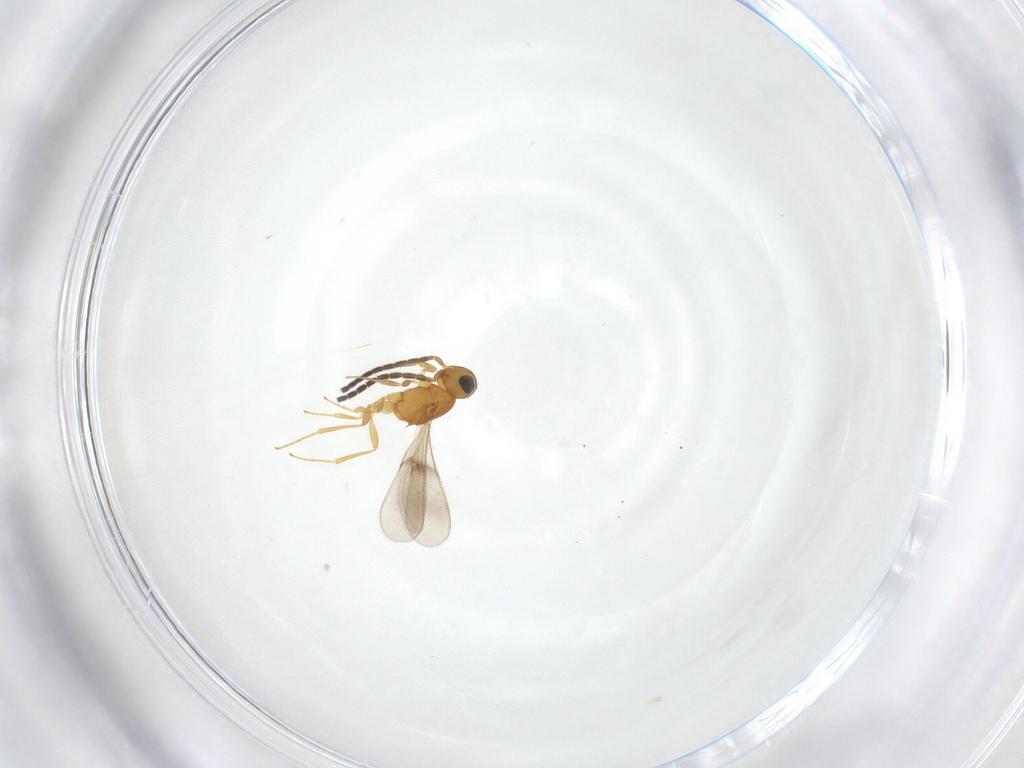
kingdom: Animalia
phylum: Arthropoda
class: Insecta
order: Hymenoptera
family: Scelionidae
